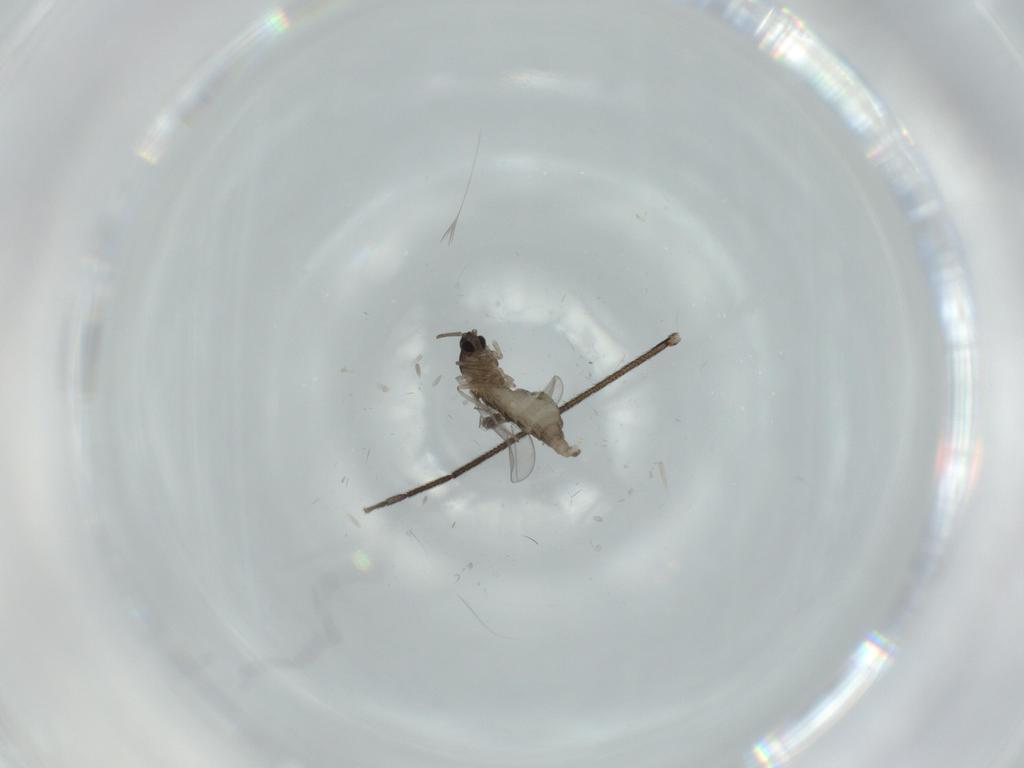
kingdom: Animalia
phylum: Arthropoda
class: Insecta
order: Diptera
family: Cecidomyiidae
